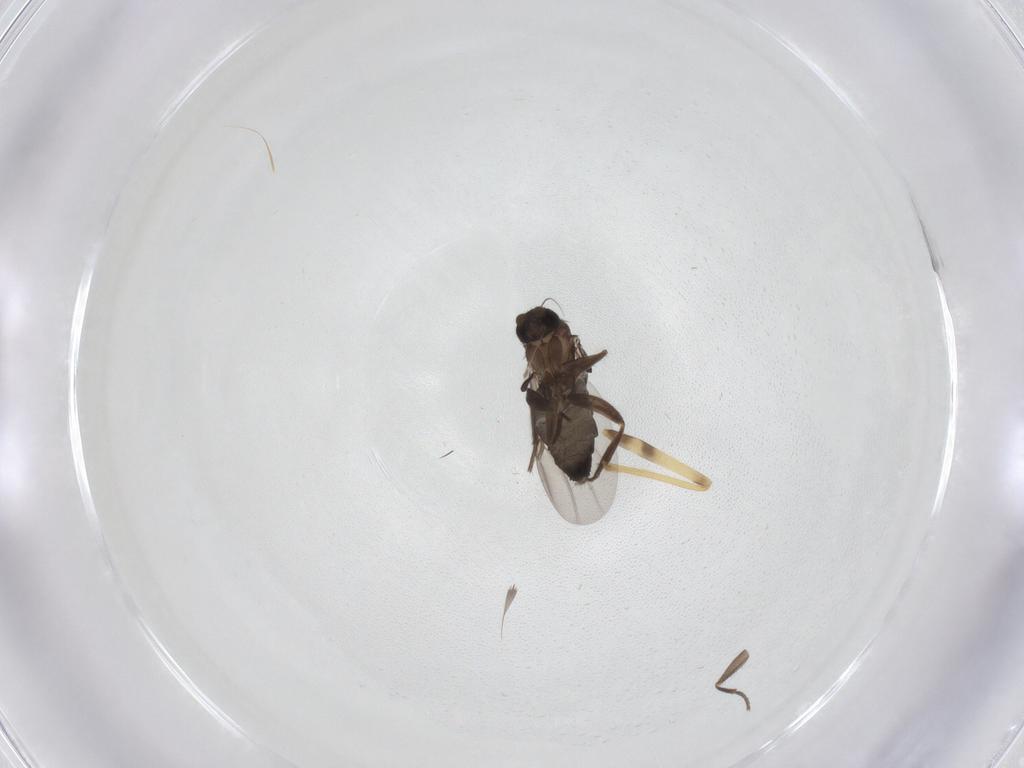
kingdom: Animalia
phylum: Arthropoda
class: Insecta
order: Diptera
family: Phoridae
